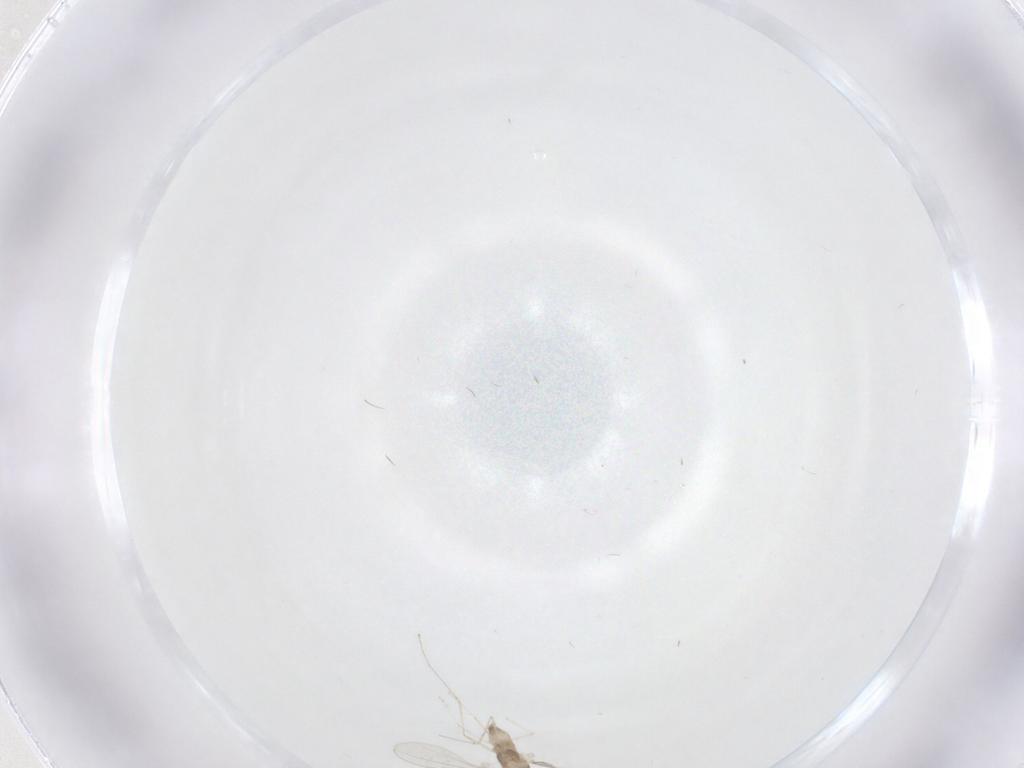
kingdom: Animalia
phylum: Arthropoda
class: Insecta
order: Diptera
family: Cecidomyiidae
